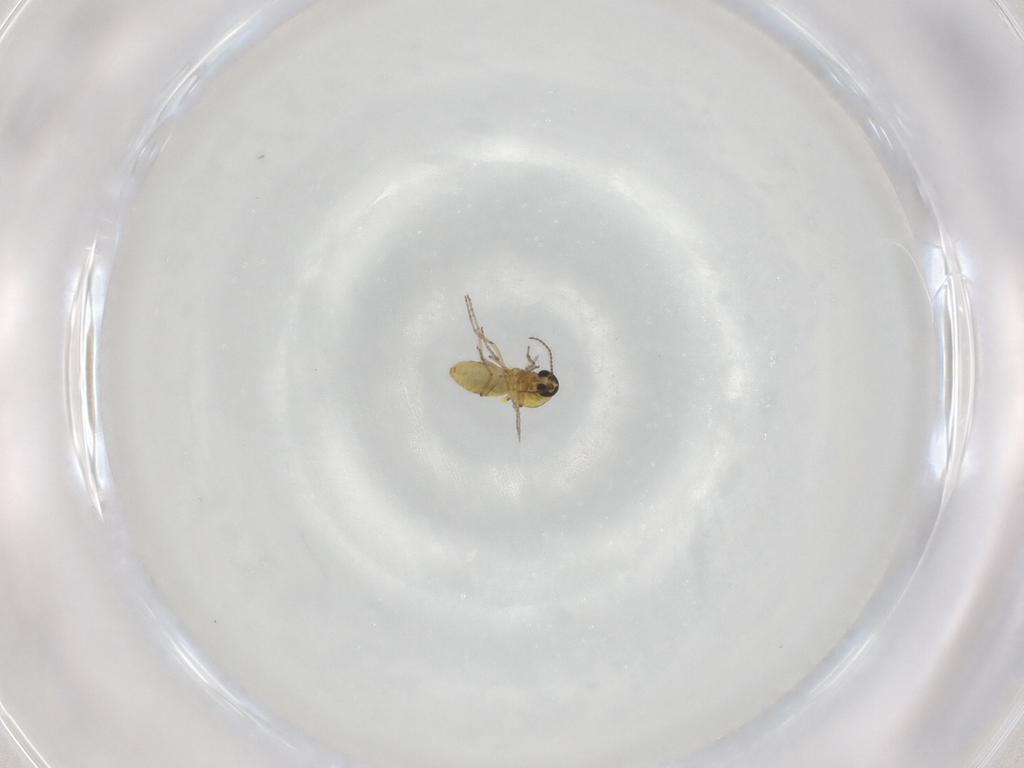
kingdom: Animalia
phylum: Arthropoda
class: Insecta
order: Diptera
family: Ceratopogonidae
